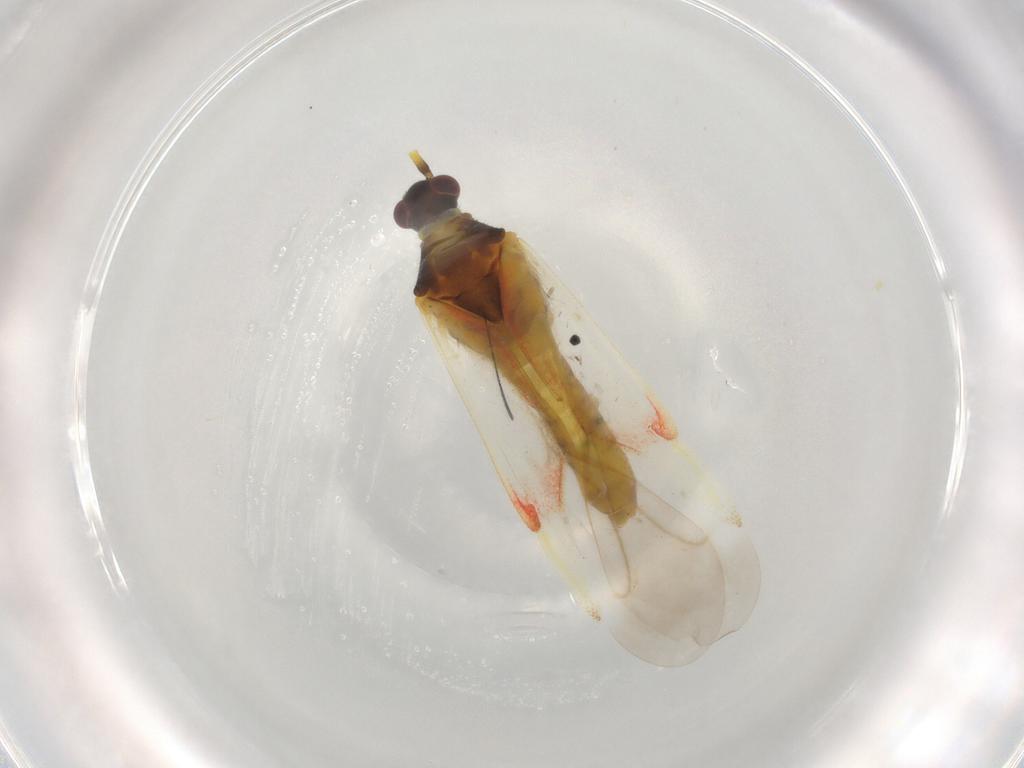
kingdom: Animalia
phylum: Arthropoda
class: Insecta
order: Hemiptera
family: Miridae
